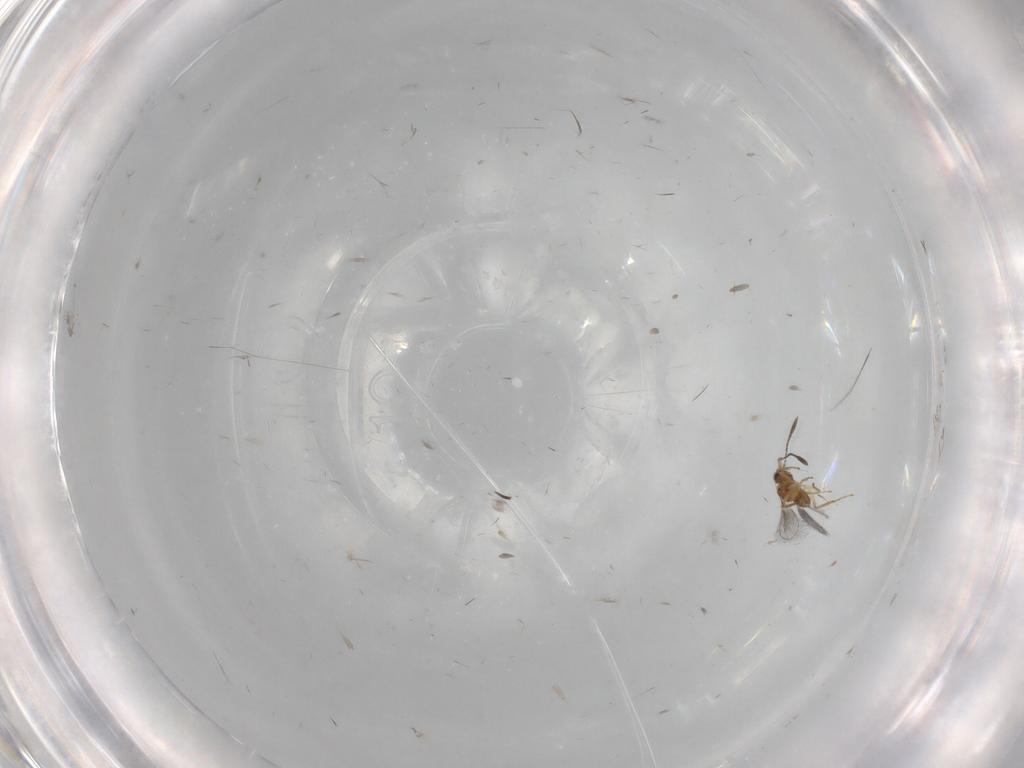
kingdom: Animalia
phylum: Arthropoda
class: Insecta
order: Hymenoptera
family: Mymaridae
